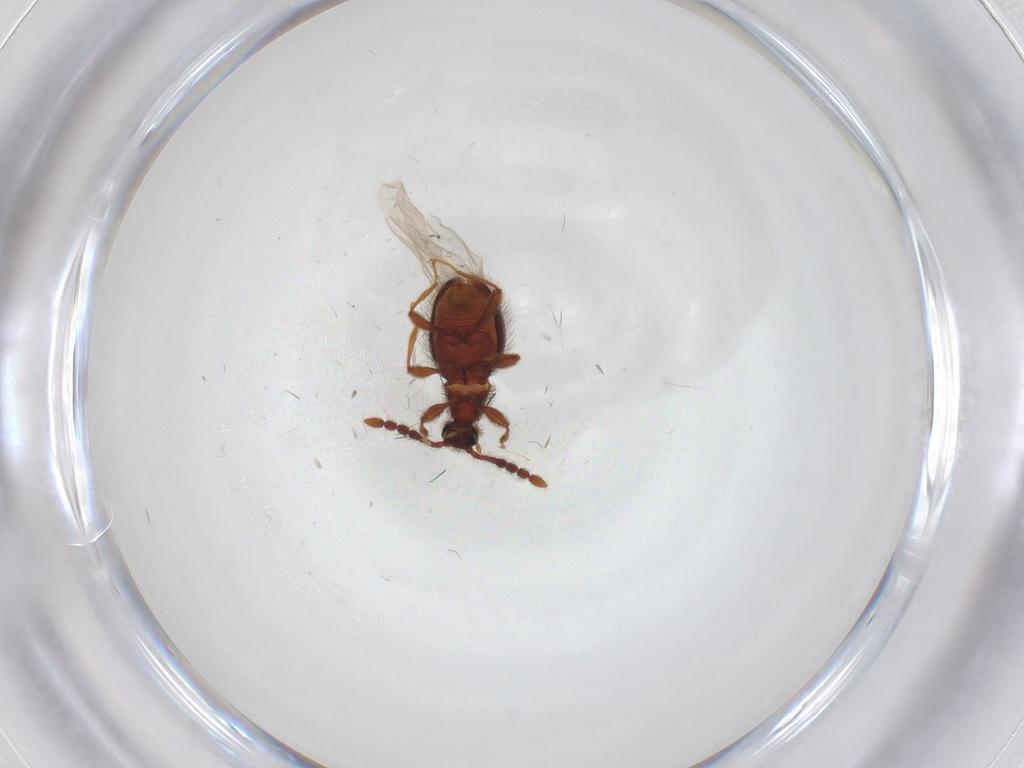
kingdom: Animalia
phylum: Arthropoda
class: Insecta
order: Coleoptera
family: Staphylinidae
